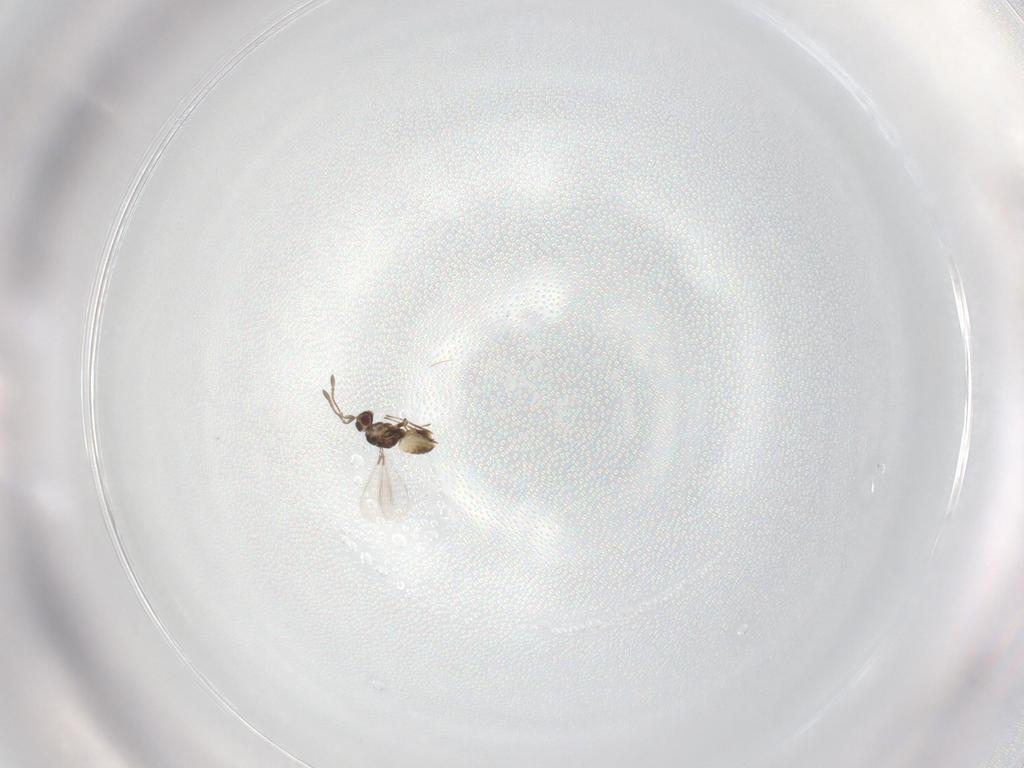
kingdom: Animalia
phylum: Arthropoda
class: Insecta
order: Hymenoptera
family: Mymaridae
